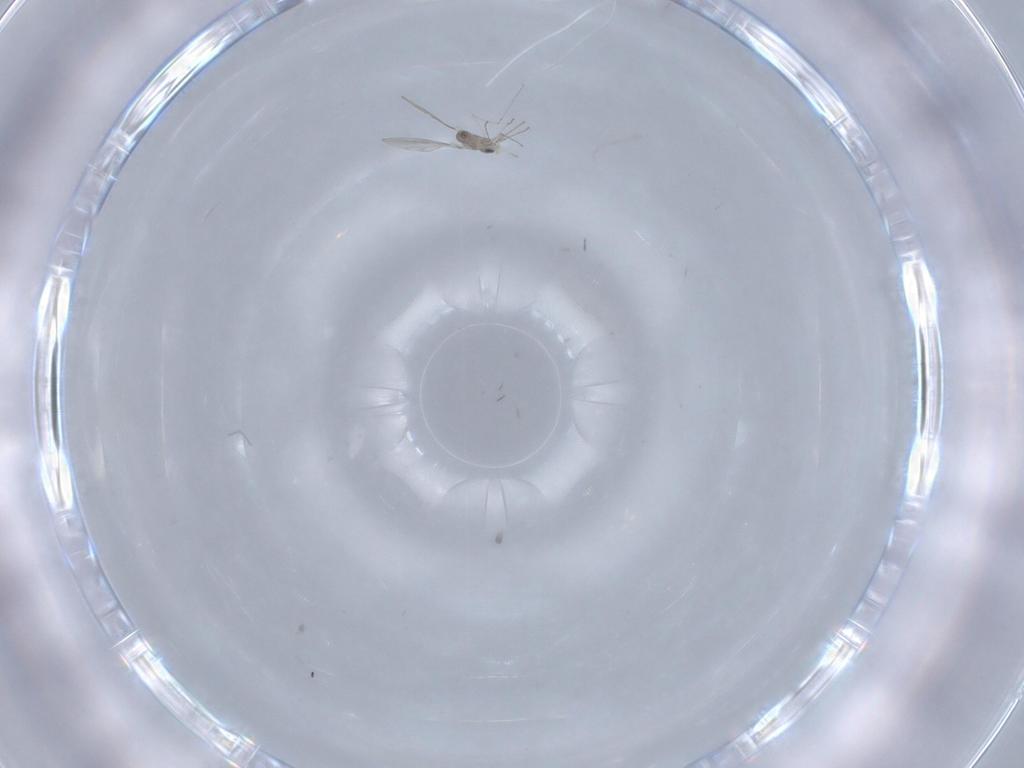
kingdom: Animalia
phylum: Arthropoda
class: Insecta
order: Diptera
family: Cecidomyiidae
